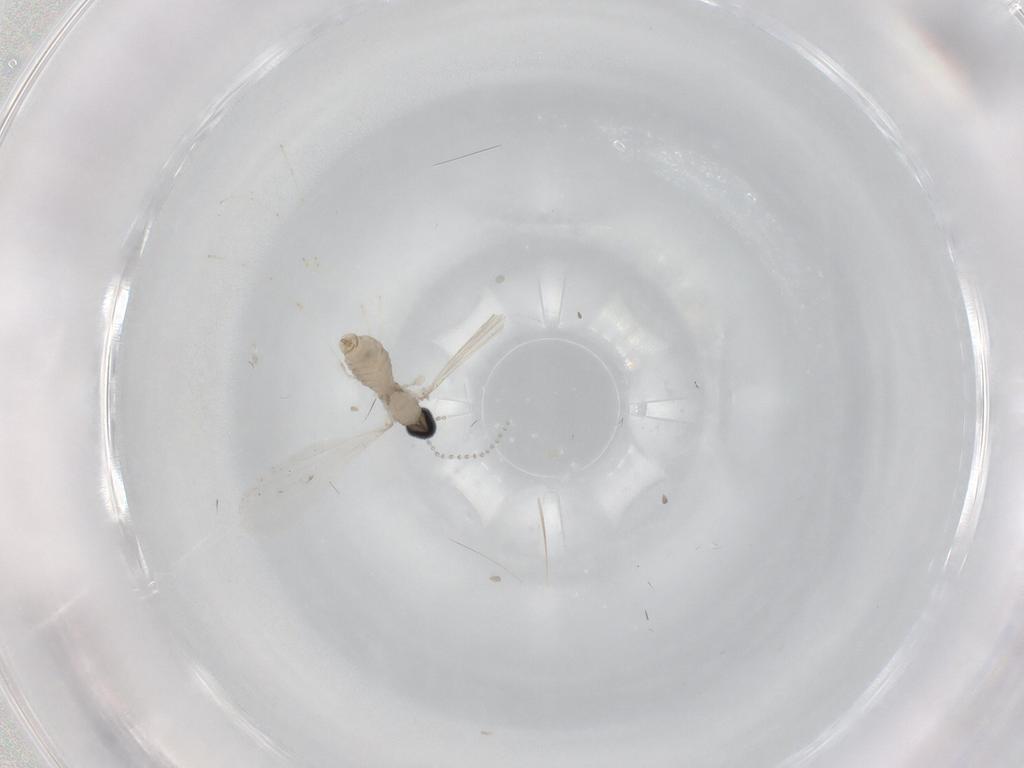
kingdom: Animalia
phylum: Arthropoda
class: Insecta
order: Diptera
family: Cecidomyiidae
